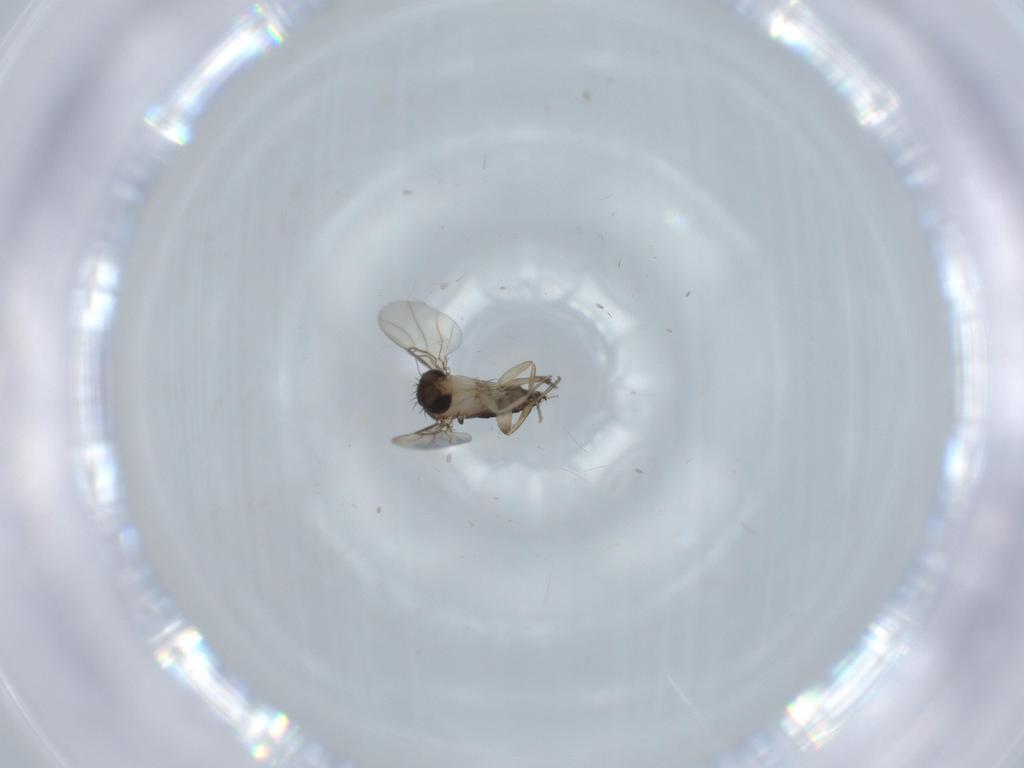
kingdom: Animalia
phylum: Arthropoda
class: Insecta
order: Diptera
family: Phoridae
